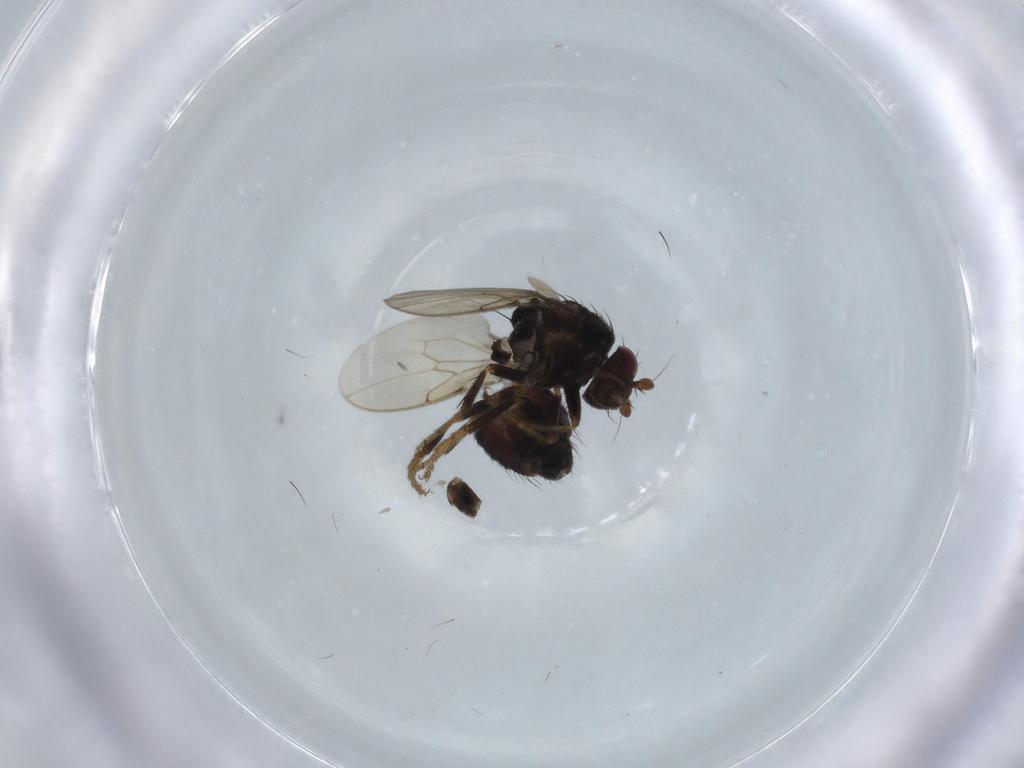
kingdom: Animalia
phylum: Arthropoda
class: Insecta
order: Diptera
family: Sphaeroceridae
